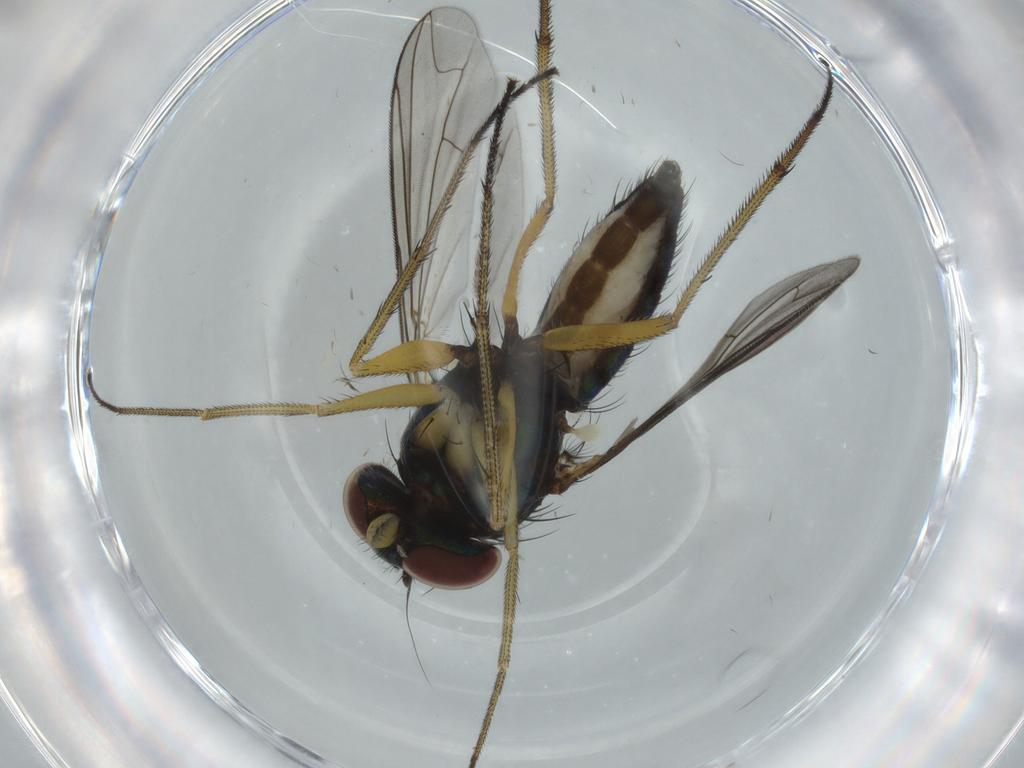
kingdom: Animalia
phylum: Arthropoda
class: Insecta
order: Diptera
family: Dolichopodidae
